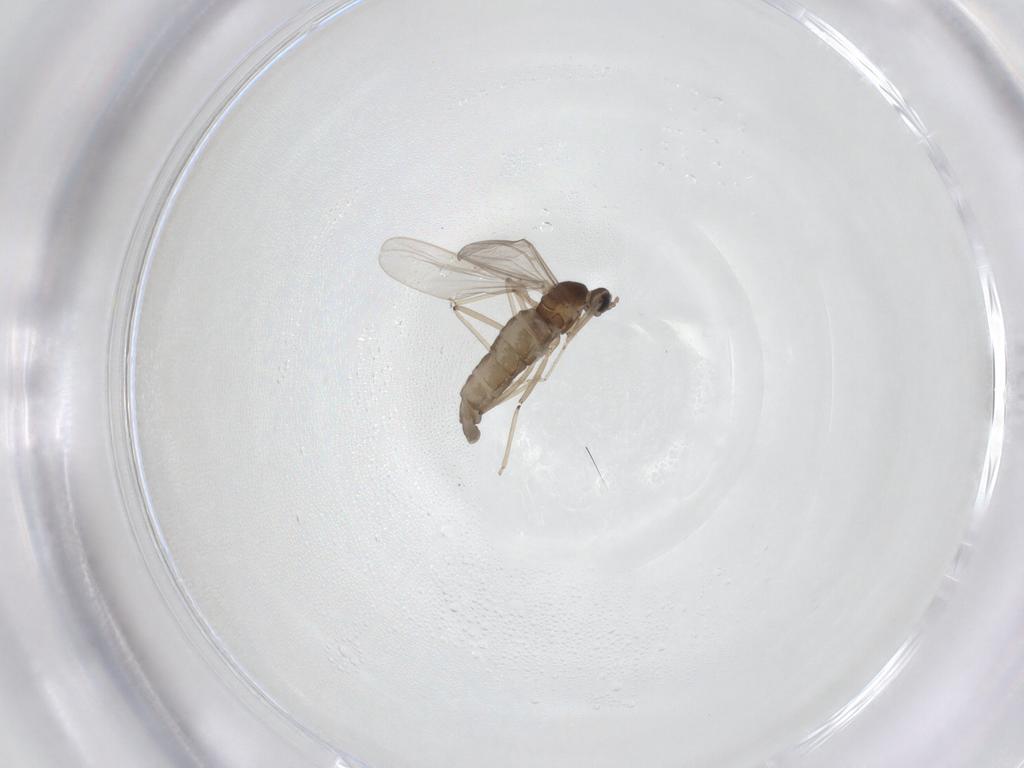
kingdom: Animalia
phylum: Arthropoda
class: Insecta
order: Diptera
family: Cecidomyiidae
